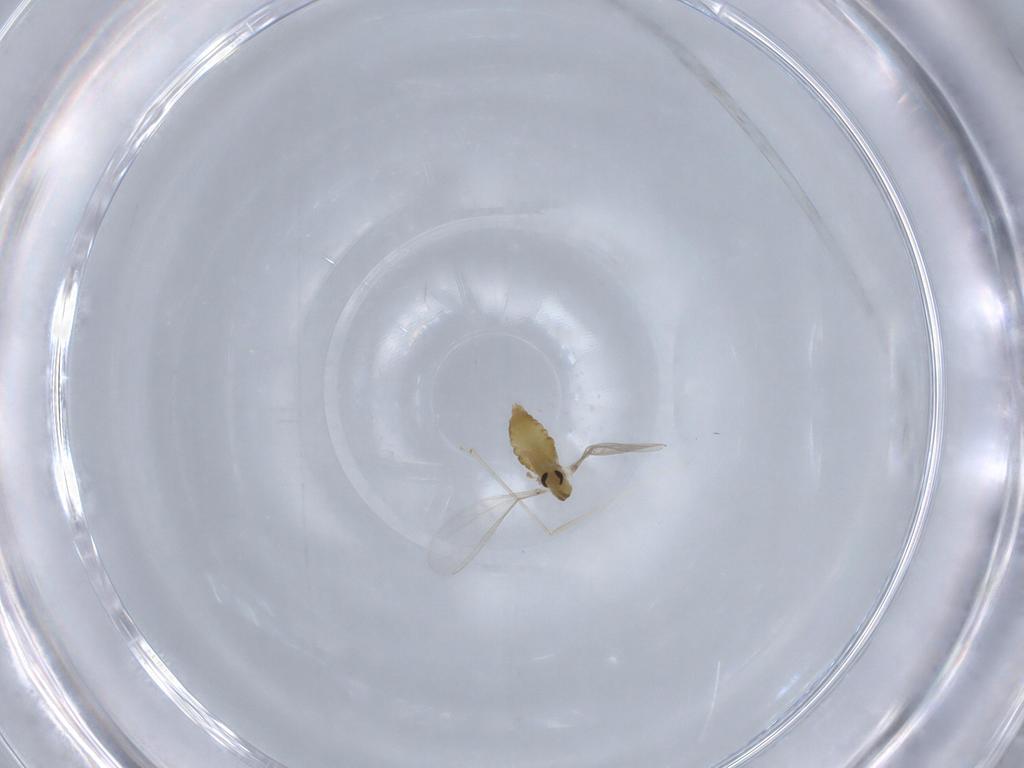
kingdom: Animalia
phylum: Arthropoda
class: Insecta
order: Diptera
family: Chironomidae
